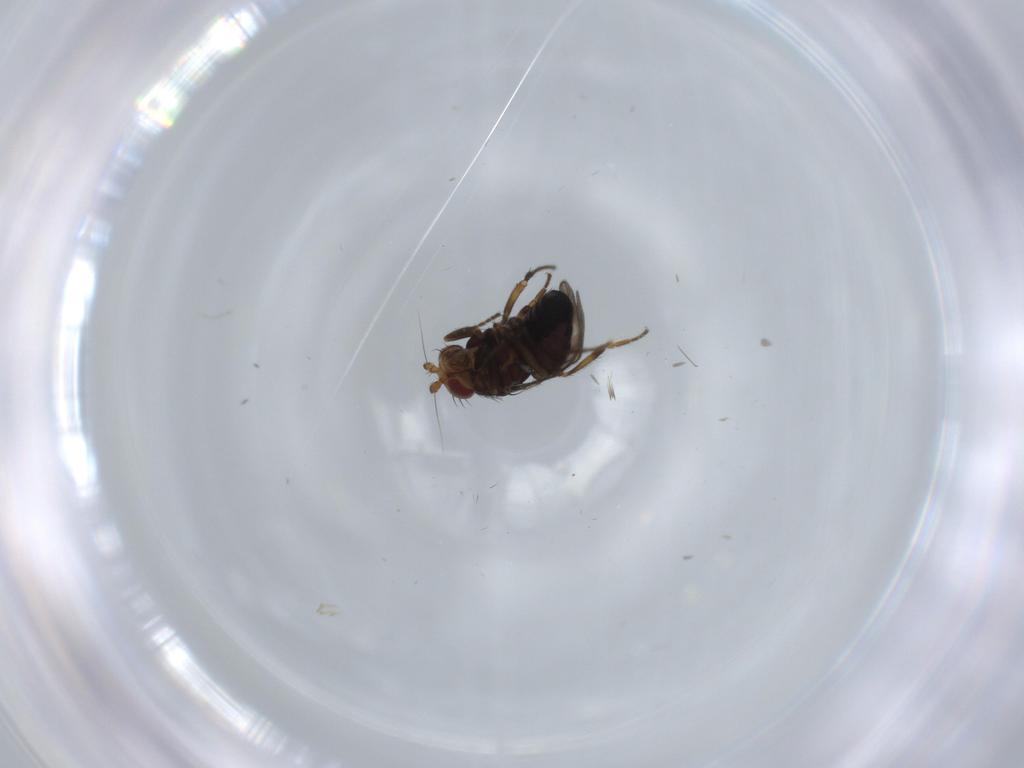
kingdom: Animalia
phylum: Arthropoda
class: Insecta
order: Diptera
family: Sphaeroceridae
